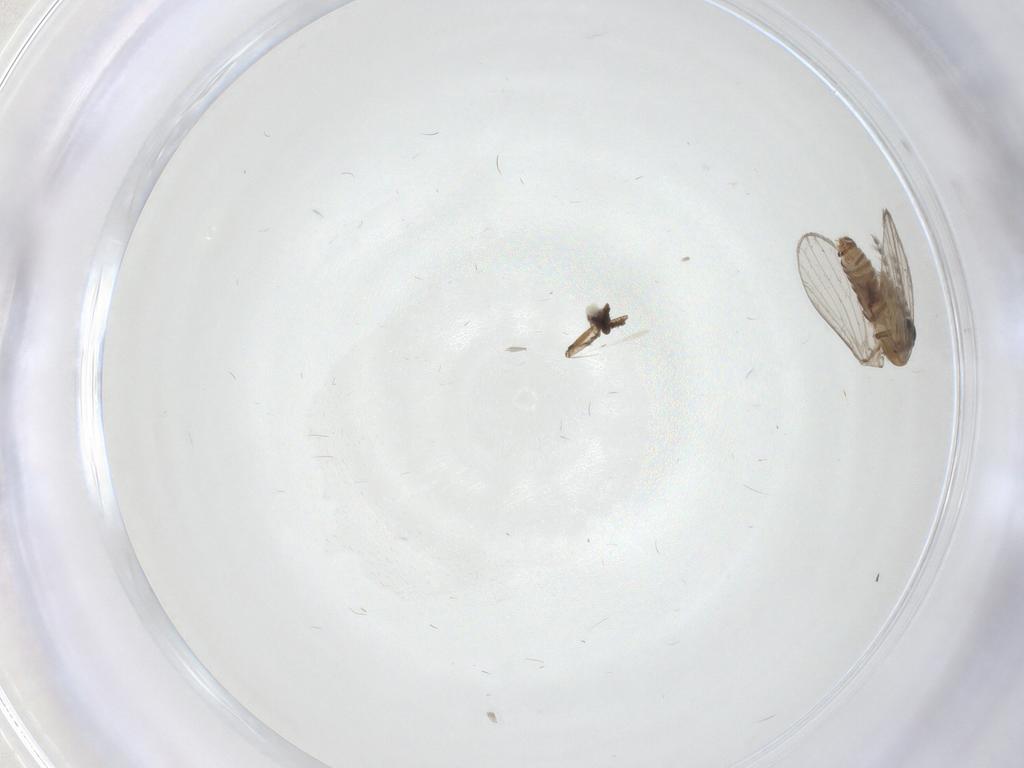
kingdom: Animalia
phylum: Arthropoda
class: Insecta
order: Diptera
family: Psychodidae
